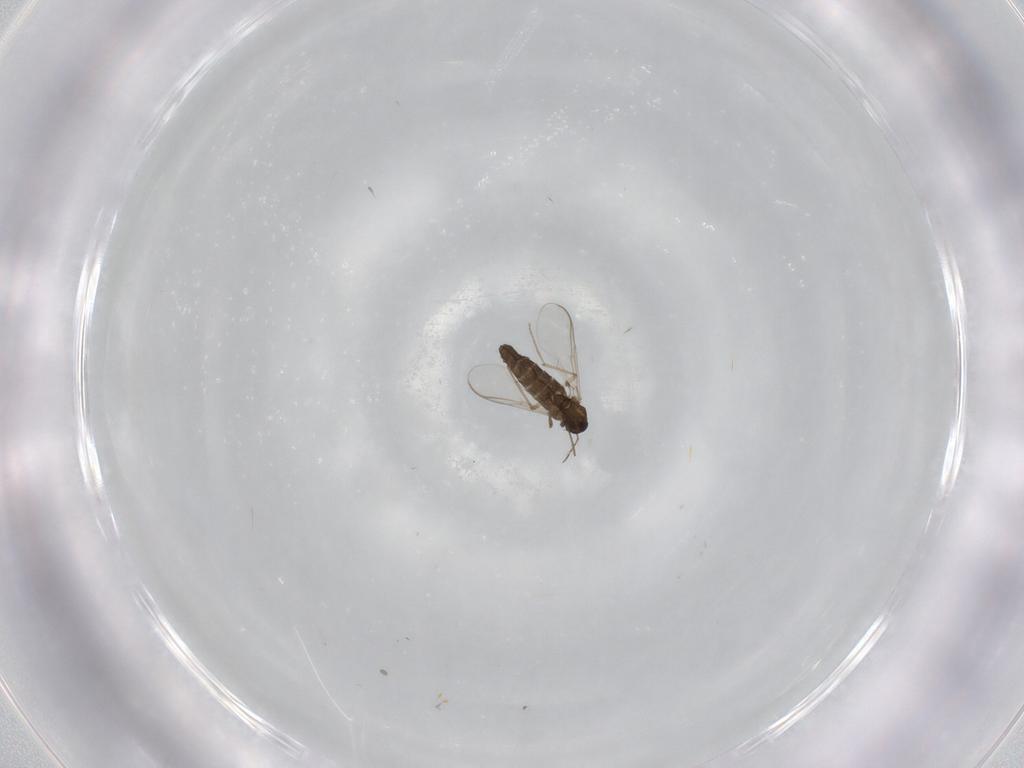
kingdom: Animalia
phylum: Arthropoda
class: Insecta
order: Diptera
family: Chironomidae
